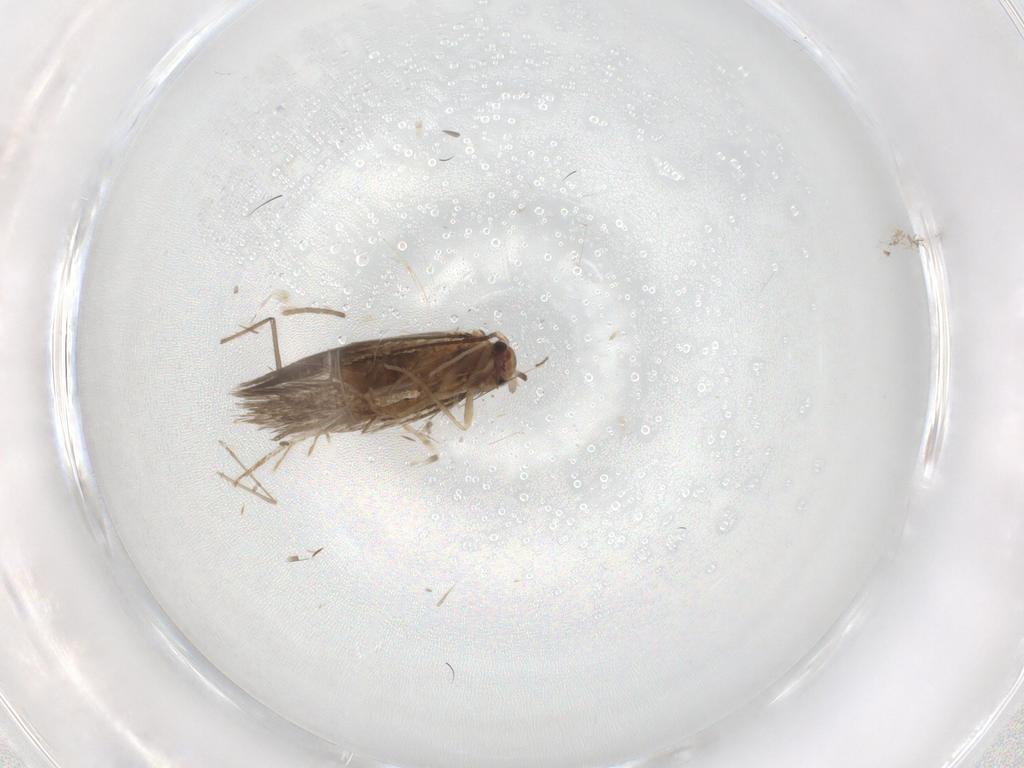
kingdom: Animalia
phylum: Arthropoda
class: Insecta
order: Lepidoptera
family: Psychidae
